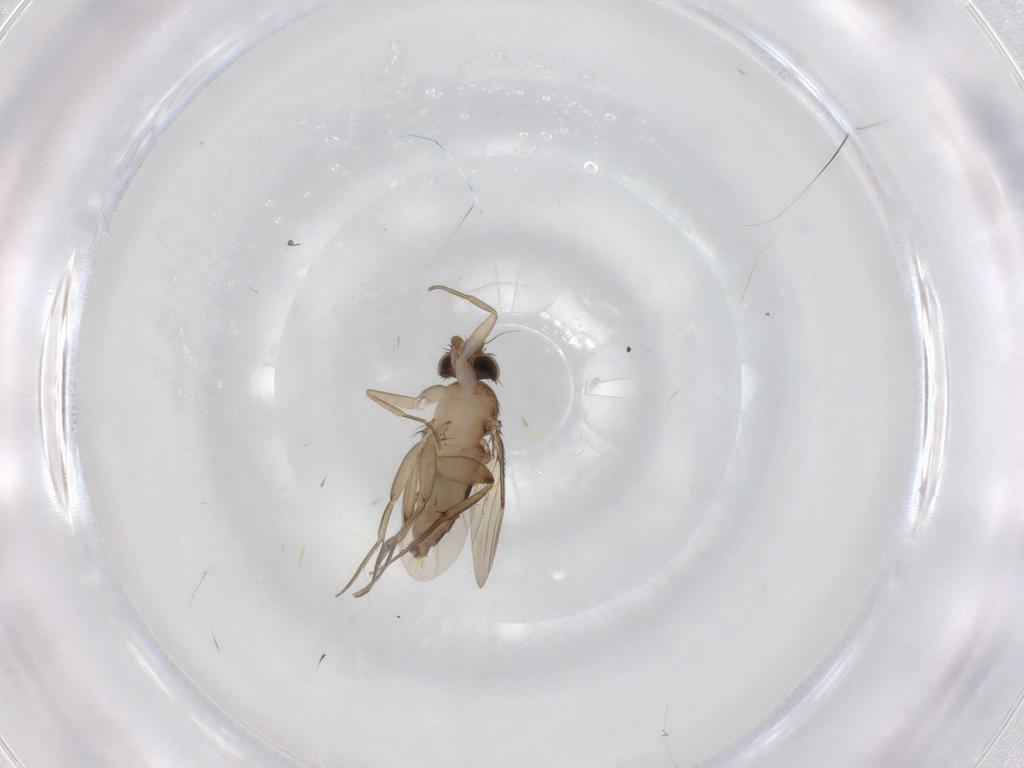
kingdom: Animalia
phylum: Arthropoda
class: Insecta
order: Diptera
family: Phoridae
